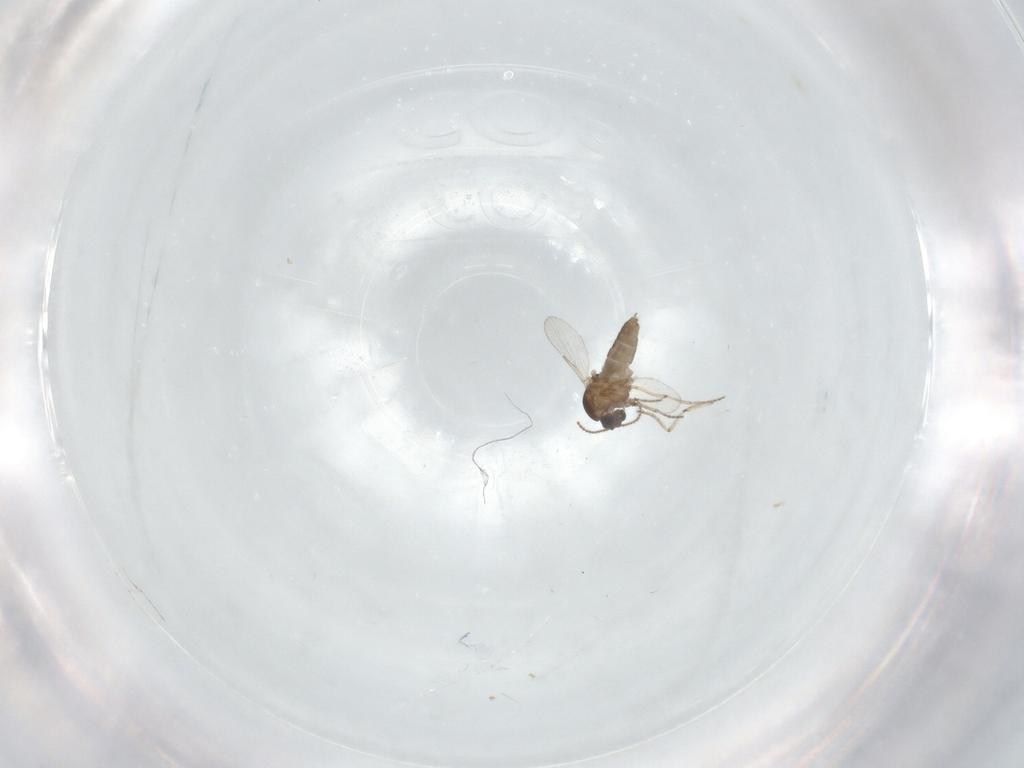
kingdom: Animalia
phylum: Arthropoda
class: Insecta
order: Diptera
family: Ceratopogonidae
